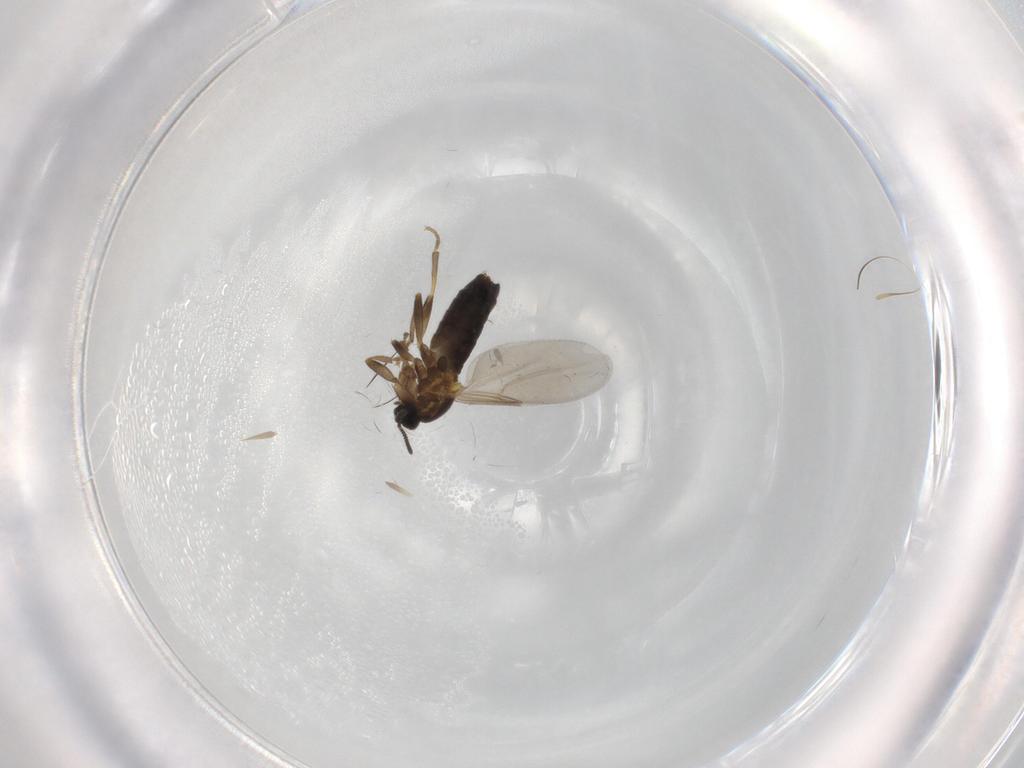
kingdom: Animalia
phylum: Arthropoda
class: Insecta
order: Diptera
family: Scatopsidae
